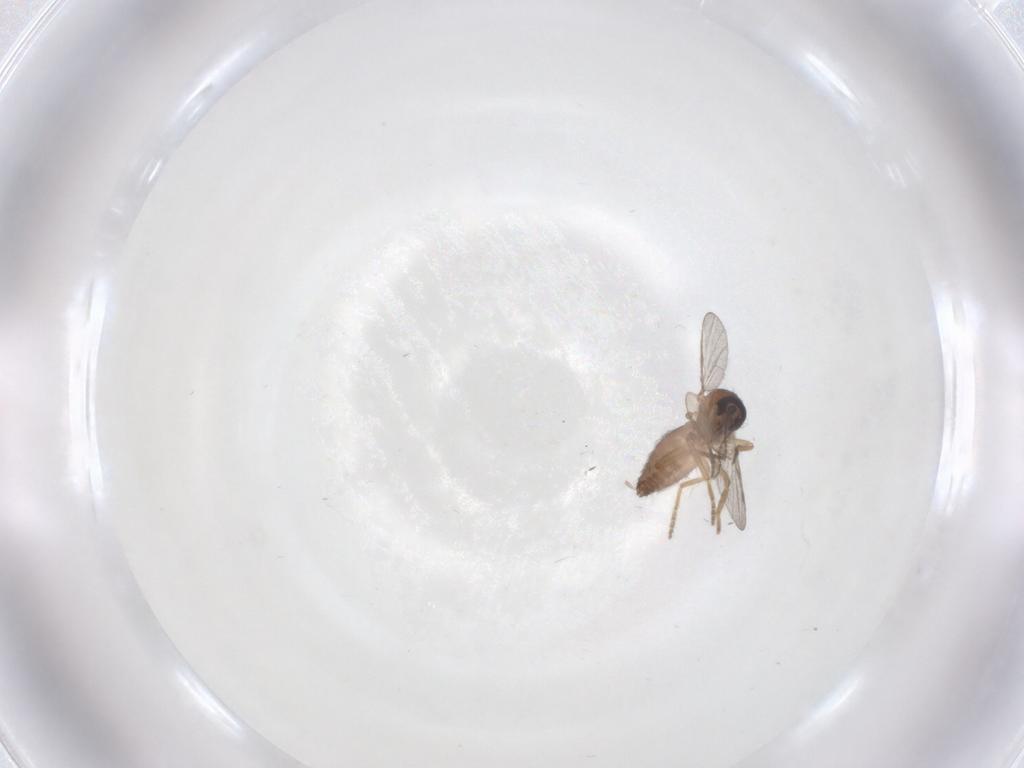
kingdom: Animalia
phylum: Arthropoda
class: Insecta
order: Diptera
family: Ceratopogonidae
